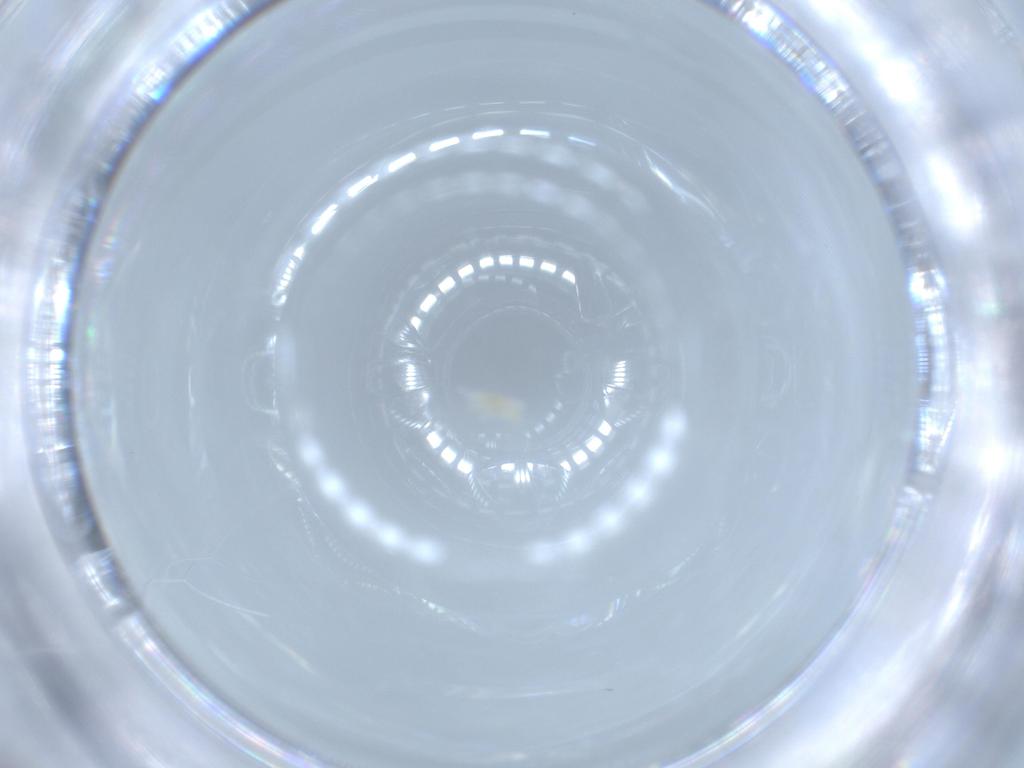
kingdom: Animalia
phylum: Arthropoda
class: Arachnida
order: Trombidiformes
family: Eupodidae
